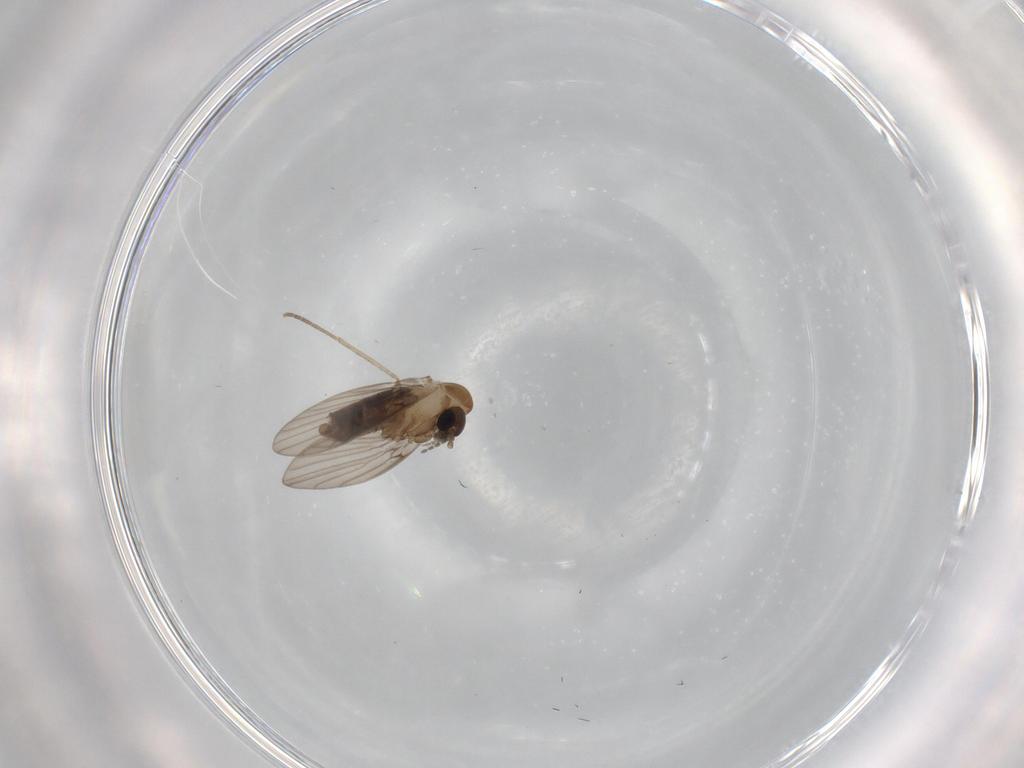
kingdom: Animalia
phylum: Arthropoda
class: Insecta
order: Diptera
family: Psychodidae
